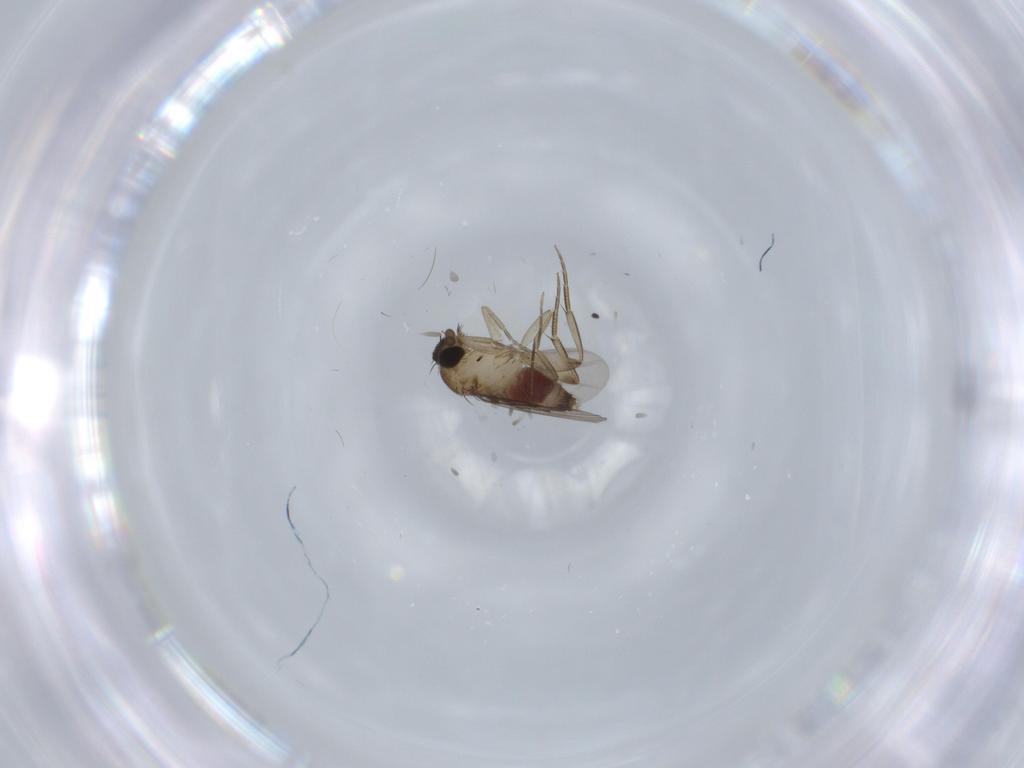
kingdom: Animalia
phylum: Arthropoda
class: Insecta
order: Diptera
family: Phoridae
